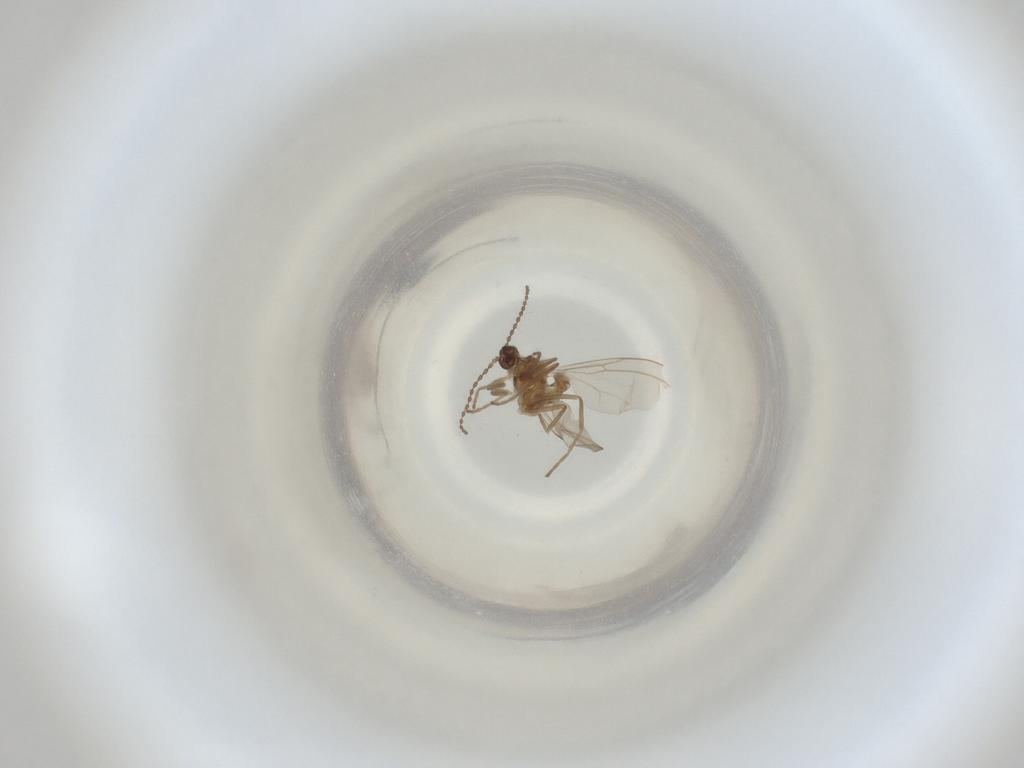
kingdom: Animalia
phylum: Arthropoda
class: Insecta
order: Diptera
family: Cecidomyiidae
